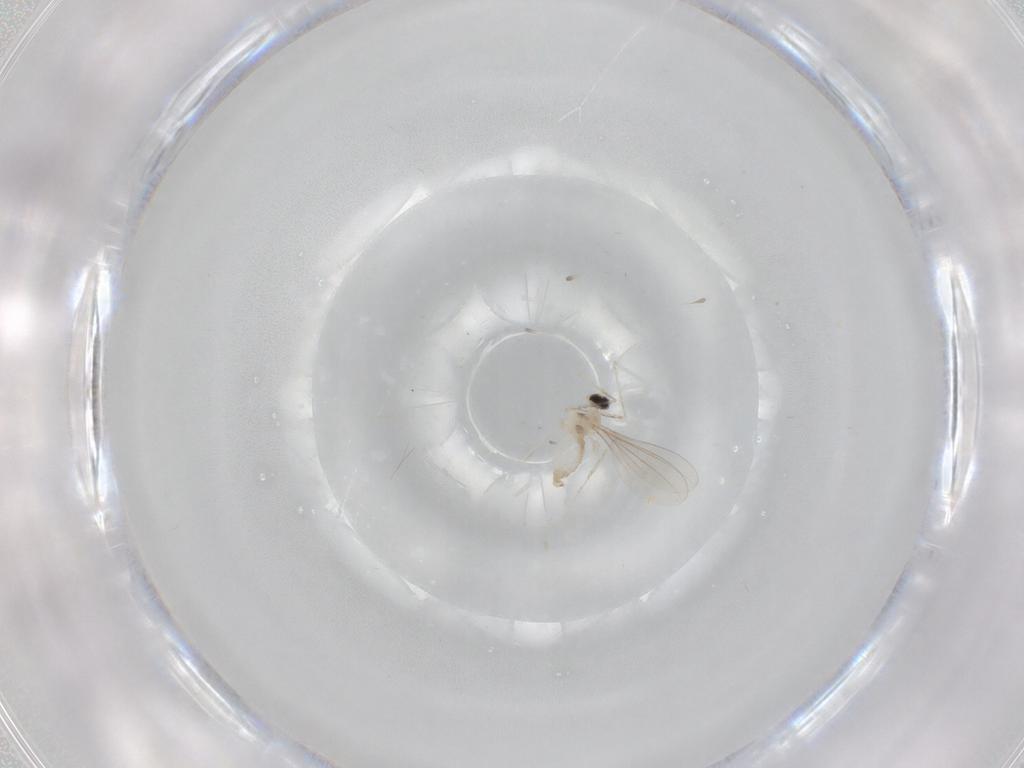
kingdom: Animalia
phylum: Arthropoda
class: Insecta
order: Diptera
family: Cecidomyiidae
